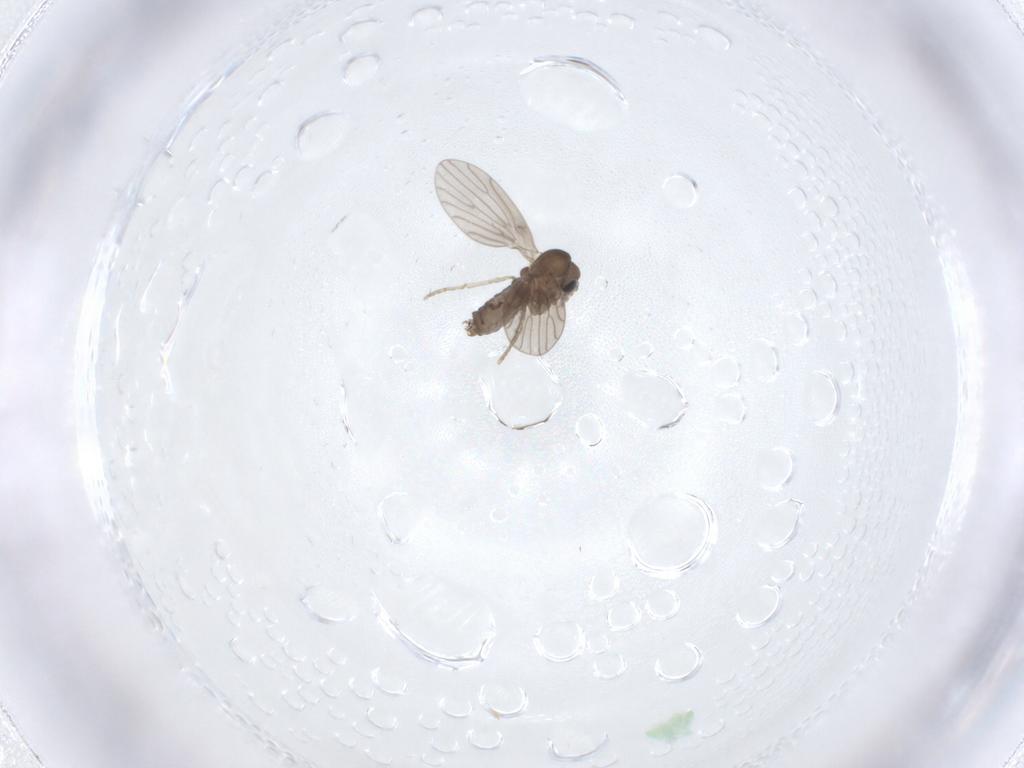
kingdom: Animalia
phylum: Arthropoda
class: Insecta
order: Diptera
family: Psychodidae
